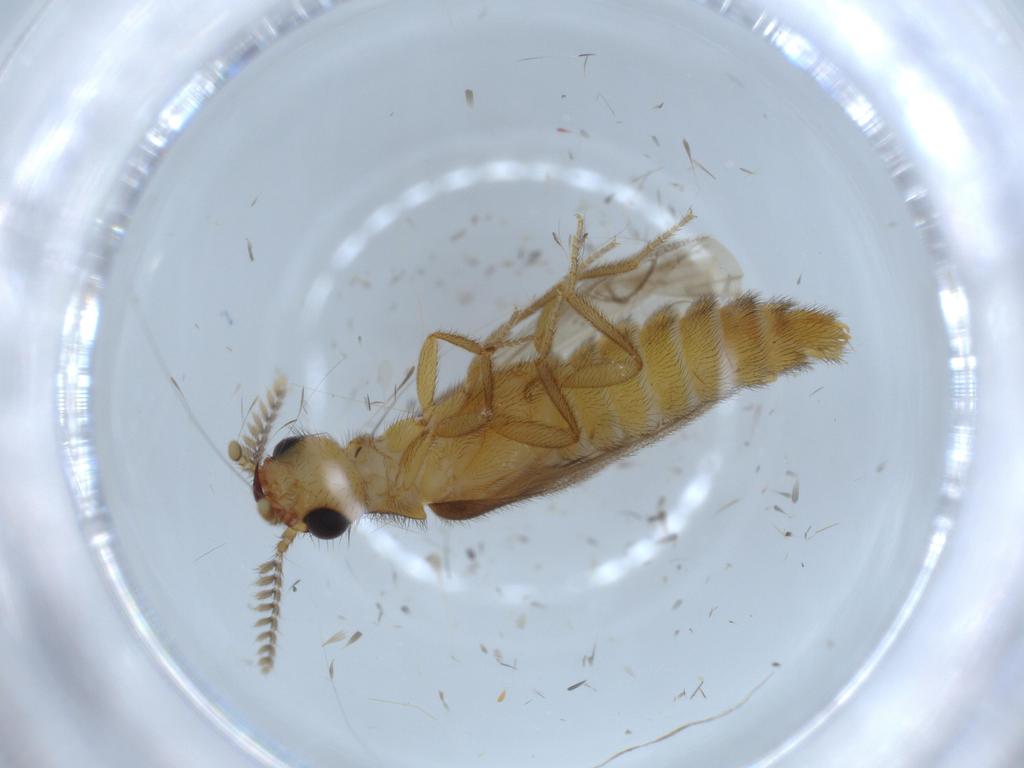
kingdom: Animalia
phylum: Arthropoda
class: Insecta
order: Coleoptera
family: Tenebrionidae
